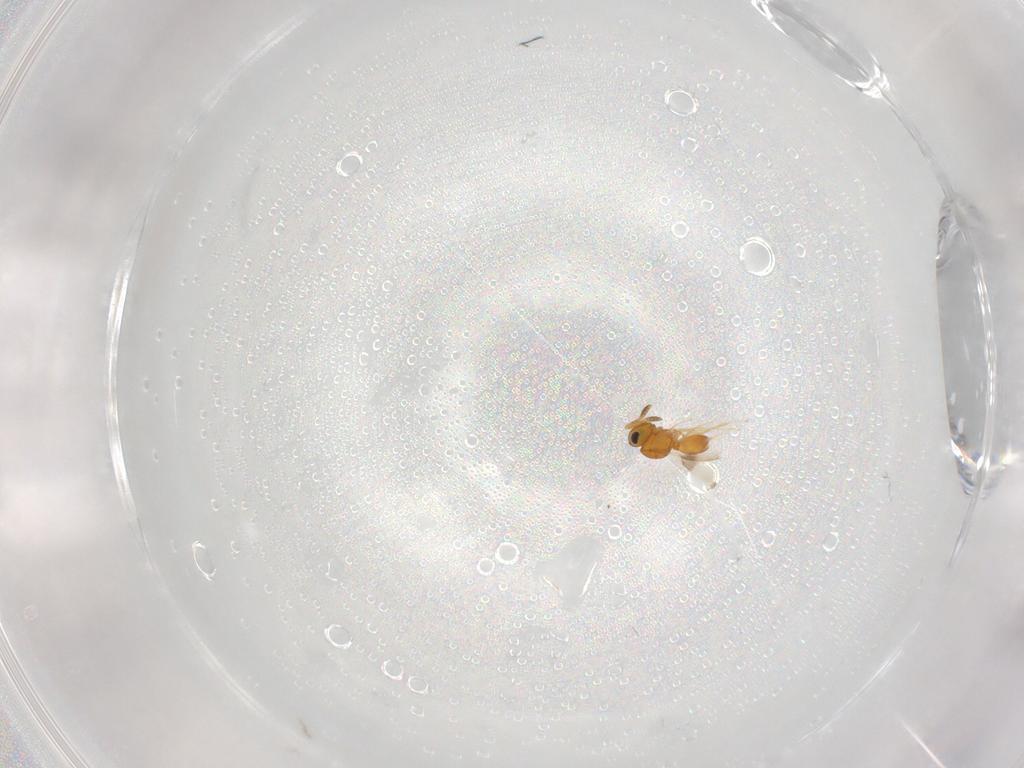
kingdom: Animalia
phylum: Arthropoda
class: Insecta
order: Hymenoptera
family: Scelionidae
